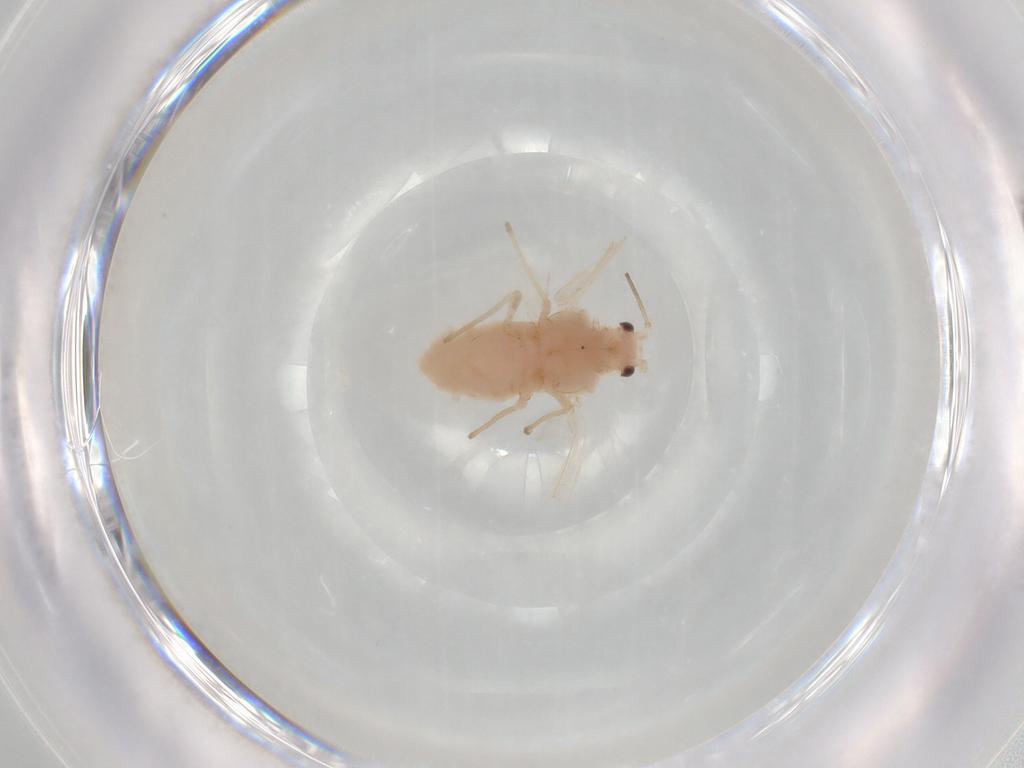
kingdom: Animalia
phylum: Arthropoda
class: Insecta
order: Hemiptera
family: Aphididae
